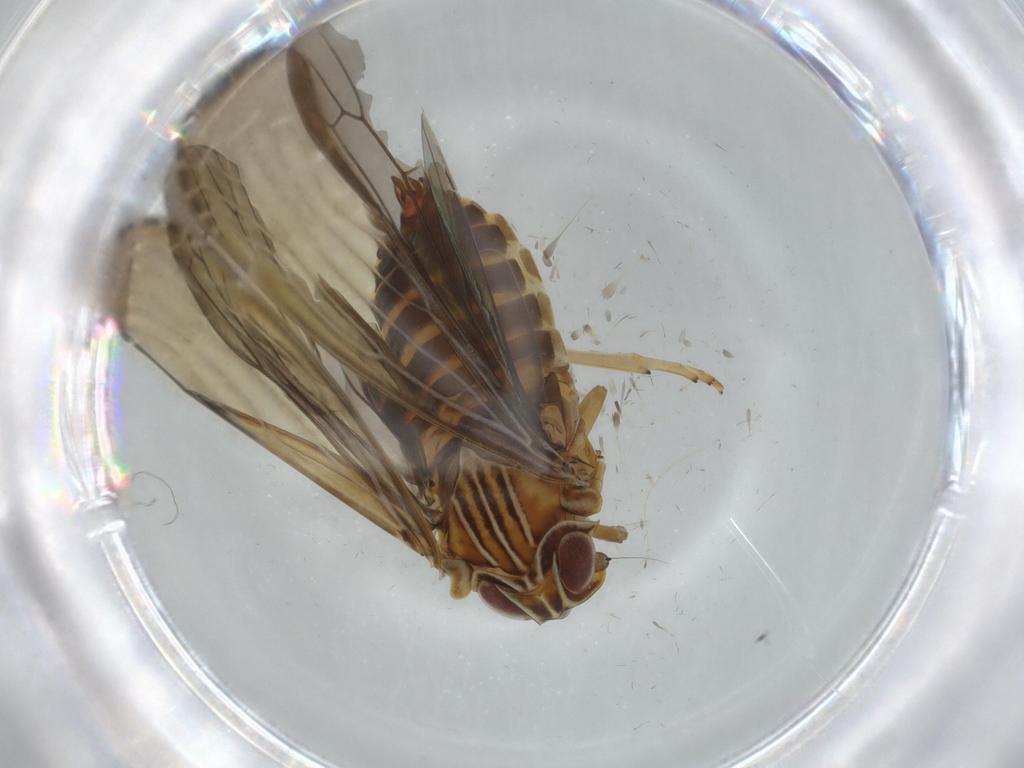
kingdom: Animalia
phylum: Arthropoda
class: Insecta
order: Hemiptera
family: Achilidae
